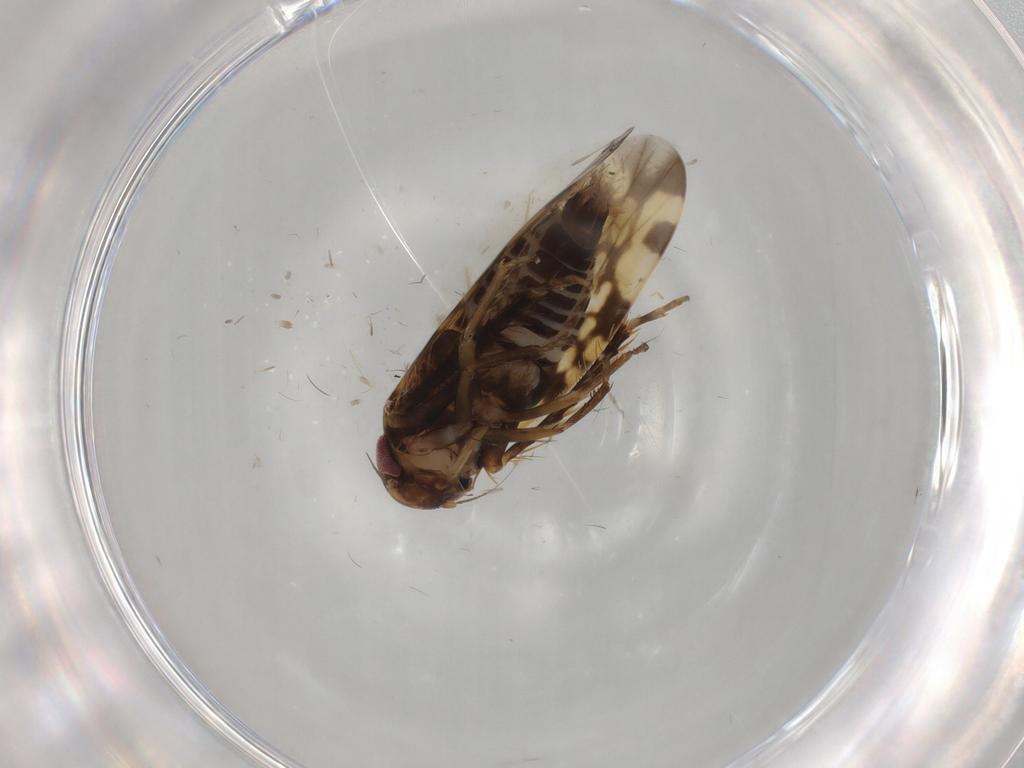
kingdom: Animalia
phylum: Arthropoda
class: Insecta
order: Hemiptera
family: Cicadellidae
